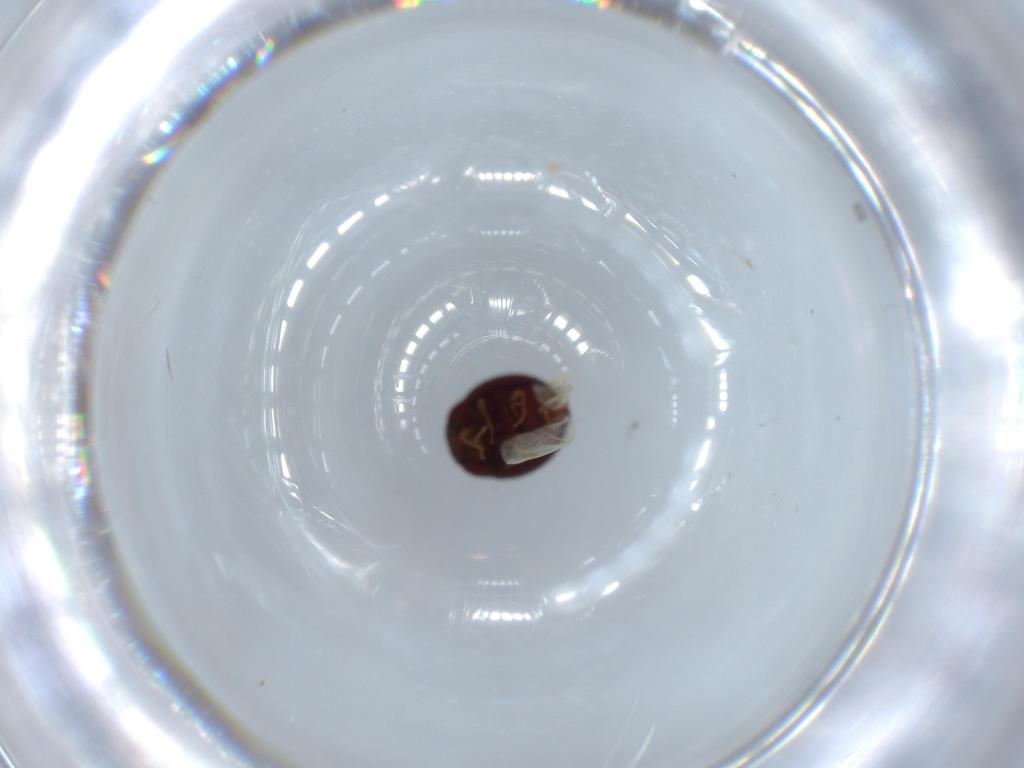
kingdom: Animalia
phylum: Arthropoda
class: Insecta
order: Coleoptera
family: Anamorphidae
